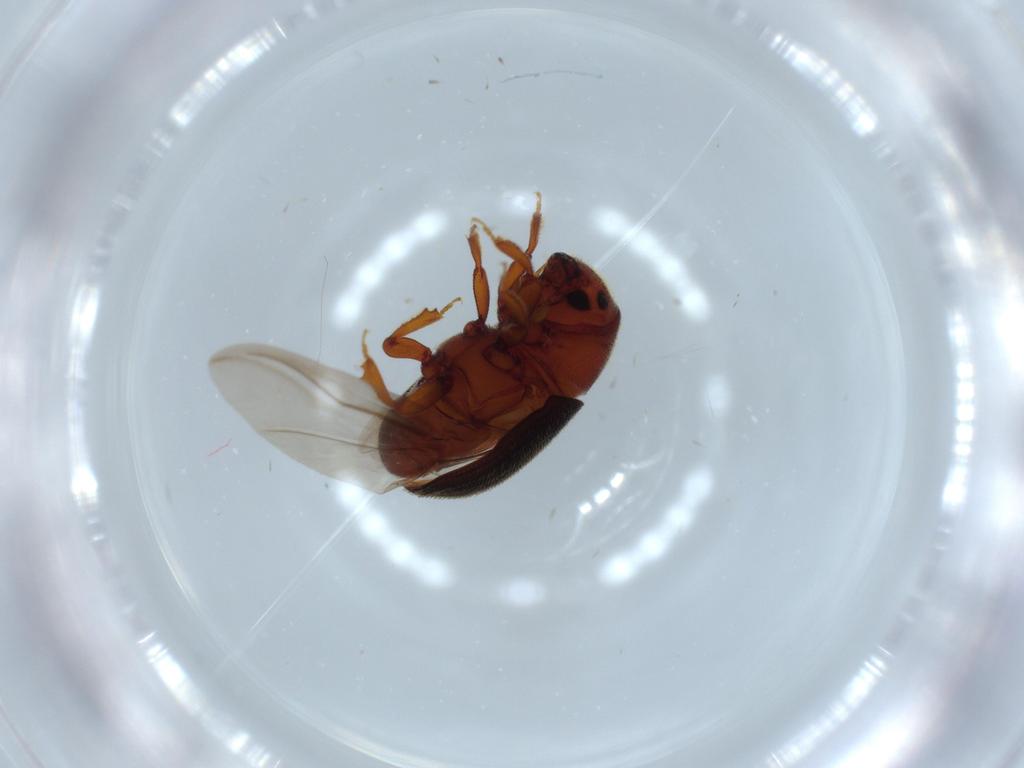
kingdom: Animalia
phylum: Arthropoda
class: Insecta
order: Coleoptera
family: Curculionidae
